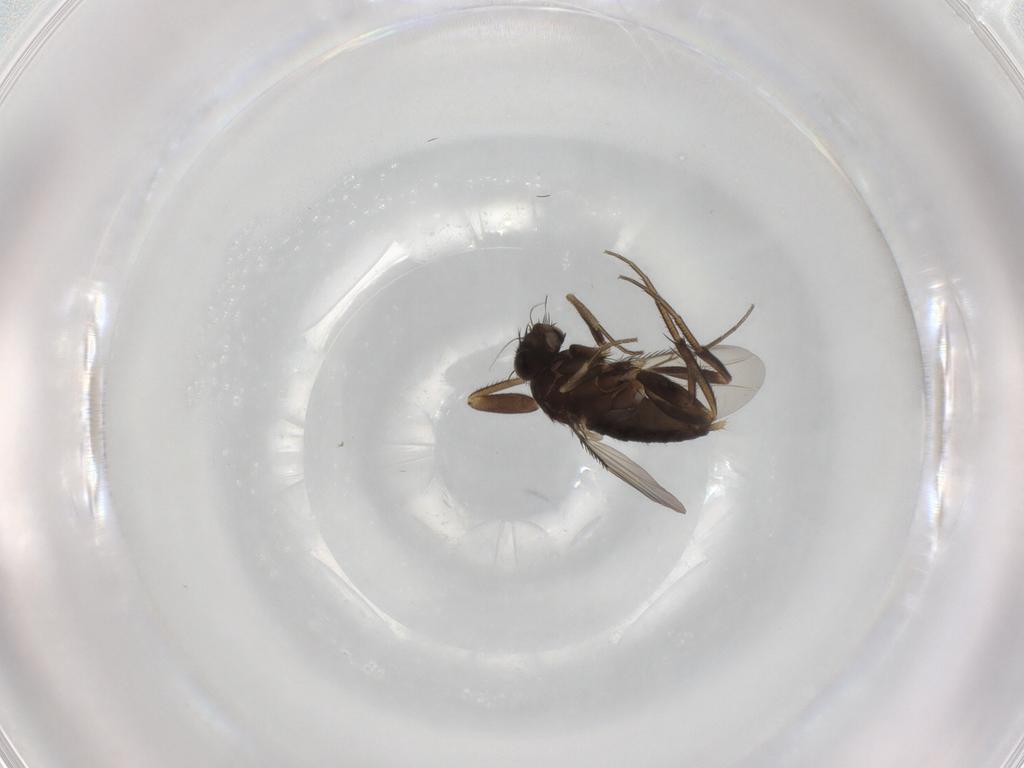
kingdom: Animalia
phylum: Arthropoda
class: Insecta
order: Diptera
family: Phoridae
